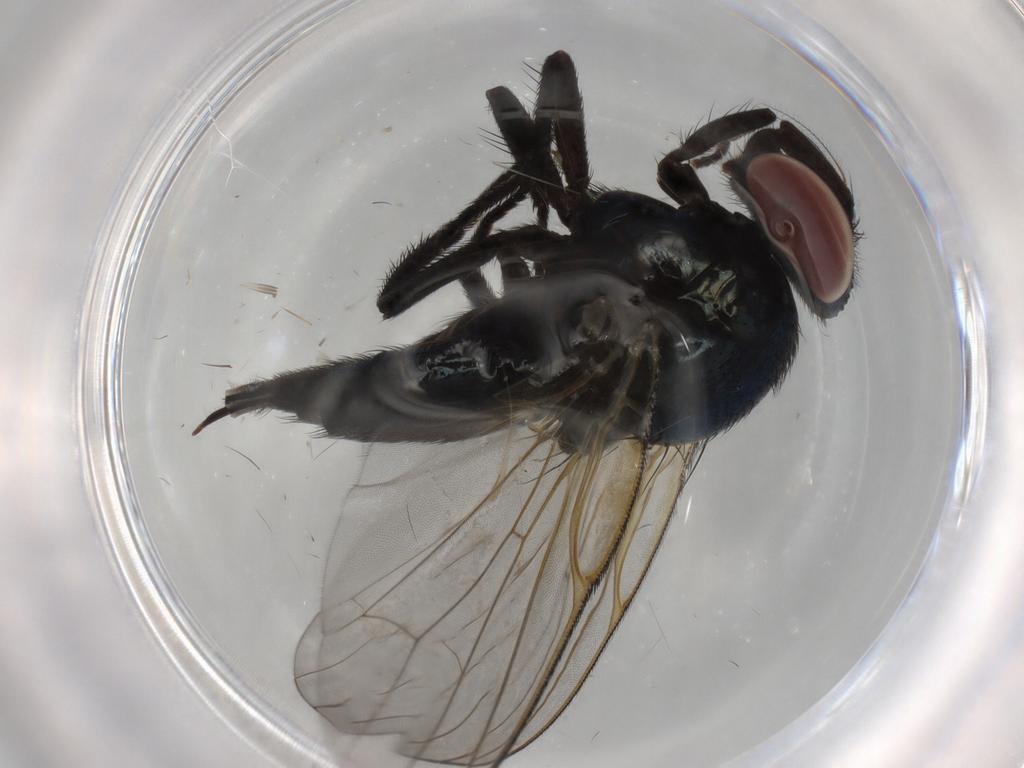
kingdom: Animalia
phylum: Arthropoda
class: Insecta
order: Diptera
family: Lonchaeidae
